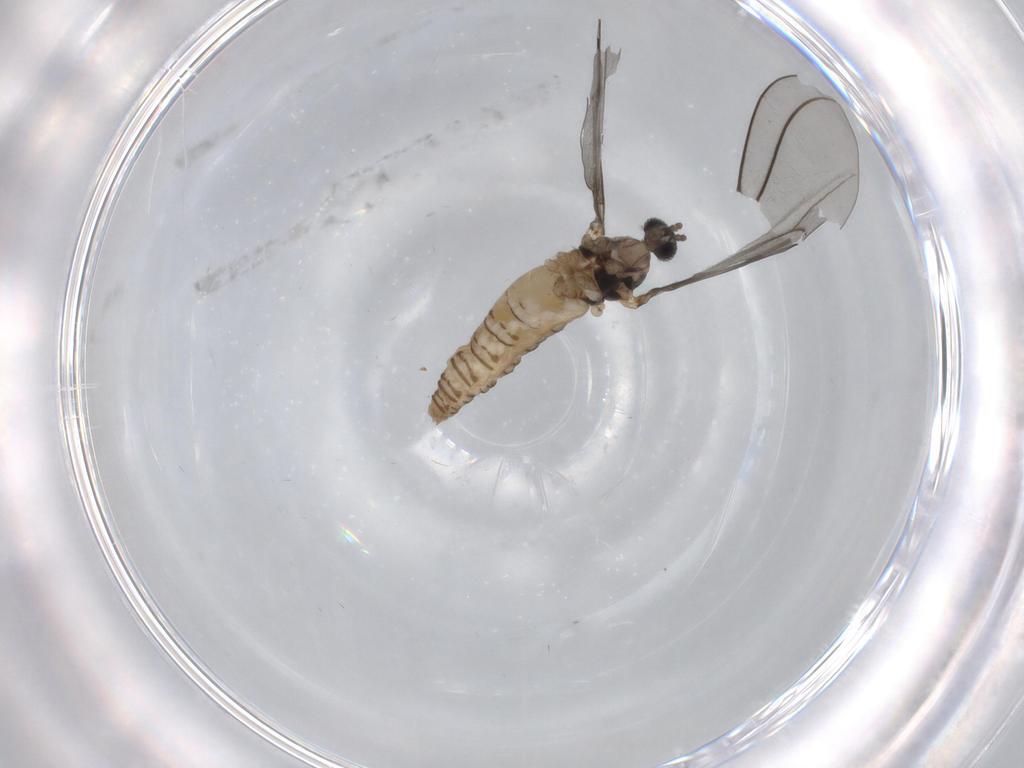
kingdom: Animalia
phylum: Arthropoda
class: Insecta
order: Diptera
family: Cecidomyiidae
